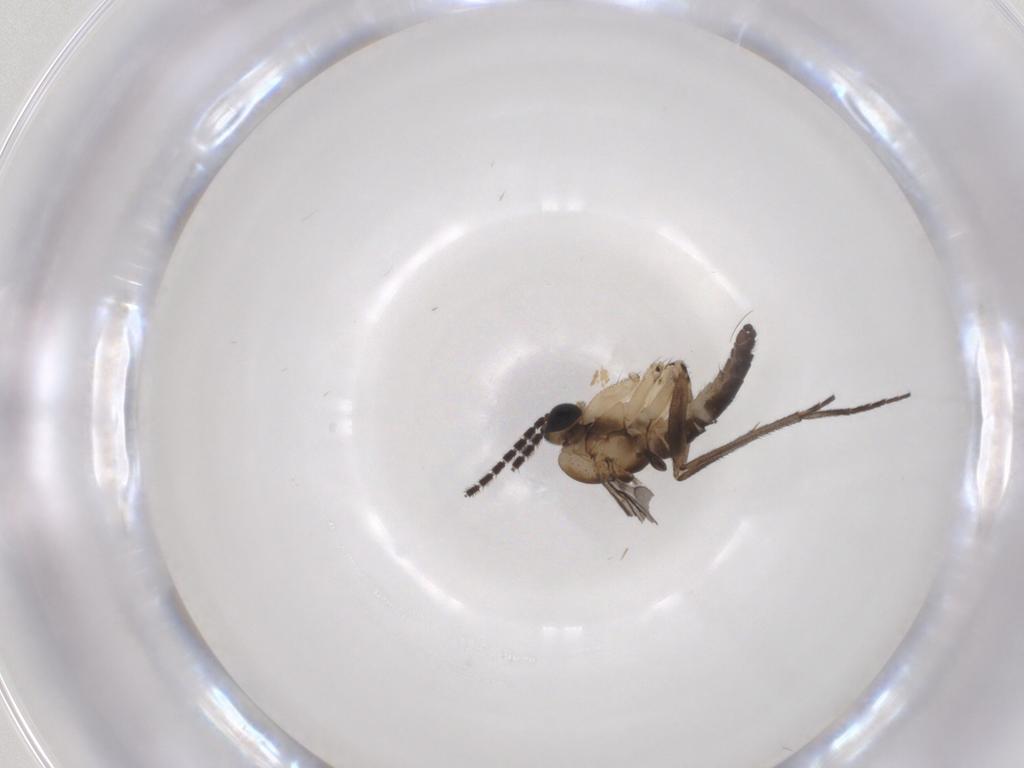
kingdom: Animalia
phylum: Arthropoda
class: Insecta
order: Diptera
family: Sciaridae
